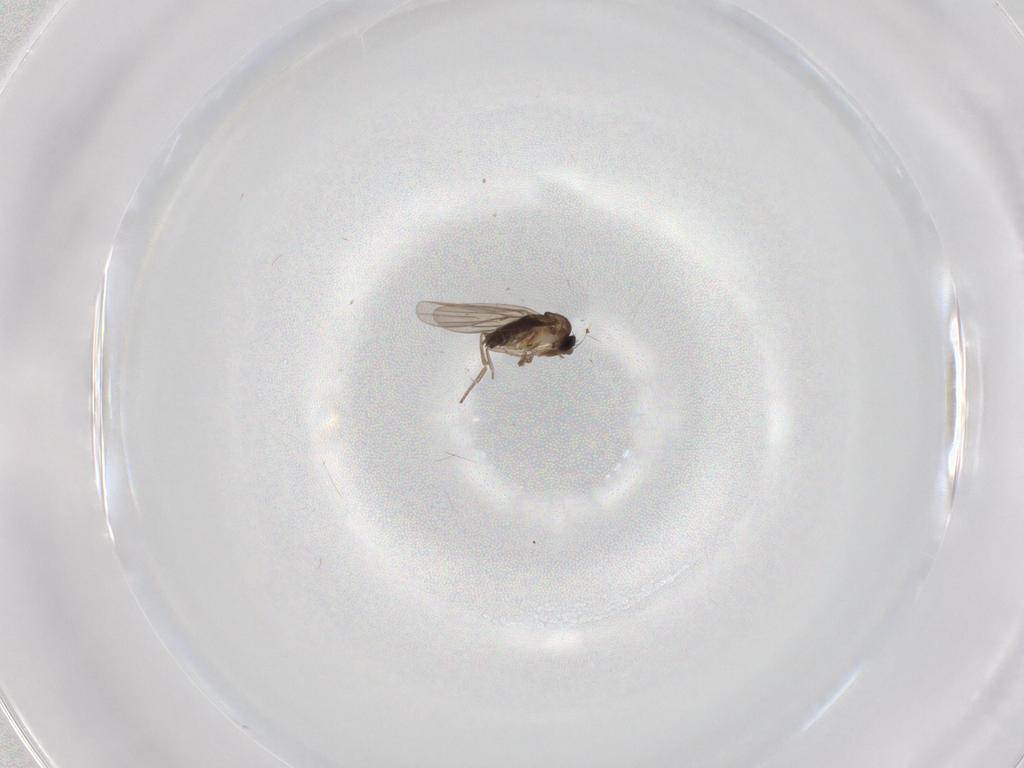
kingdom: Animalia
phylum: Arthropoda
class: Insecta
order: Diptera
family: Phoridae
